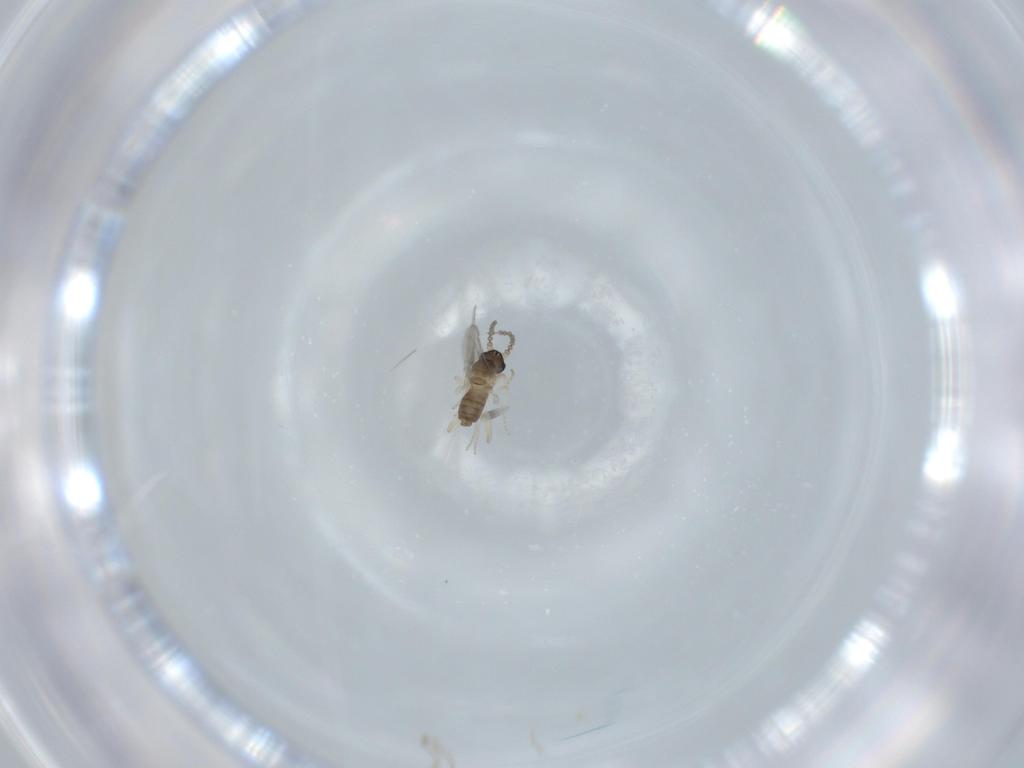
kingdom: Animalia
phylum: Arthropoda
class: Insecta
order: Diptera
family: Cecidomyiidae
